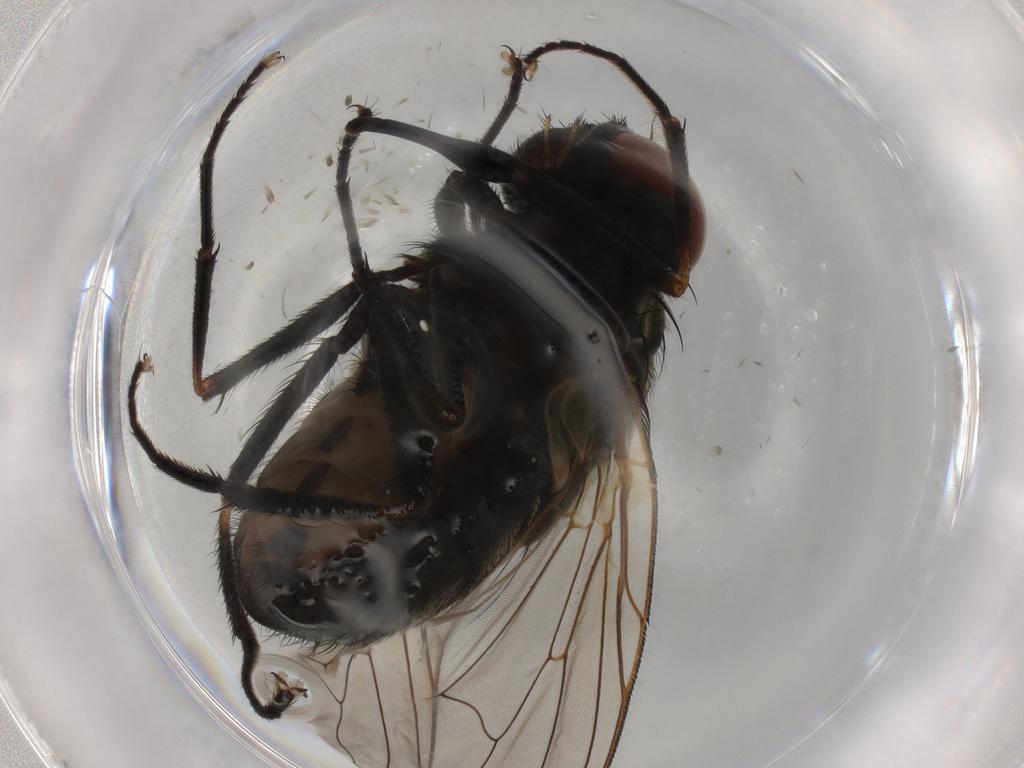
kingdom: Animalia
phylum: Arthropoda
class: Insecta
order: Diptera
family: Muscidae
